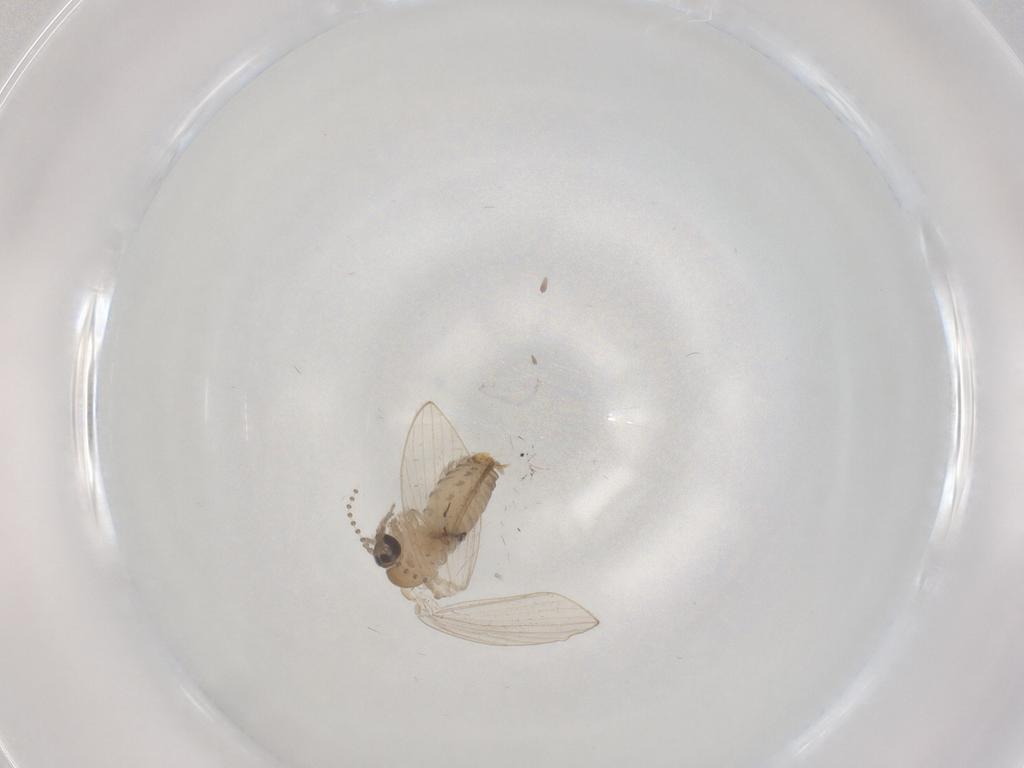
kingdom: Animalia
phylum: Arthropoda
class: Insecta
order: Diptera
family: Psychodidae
